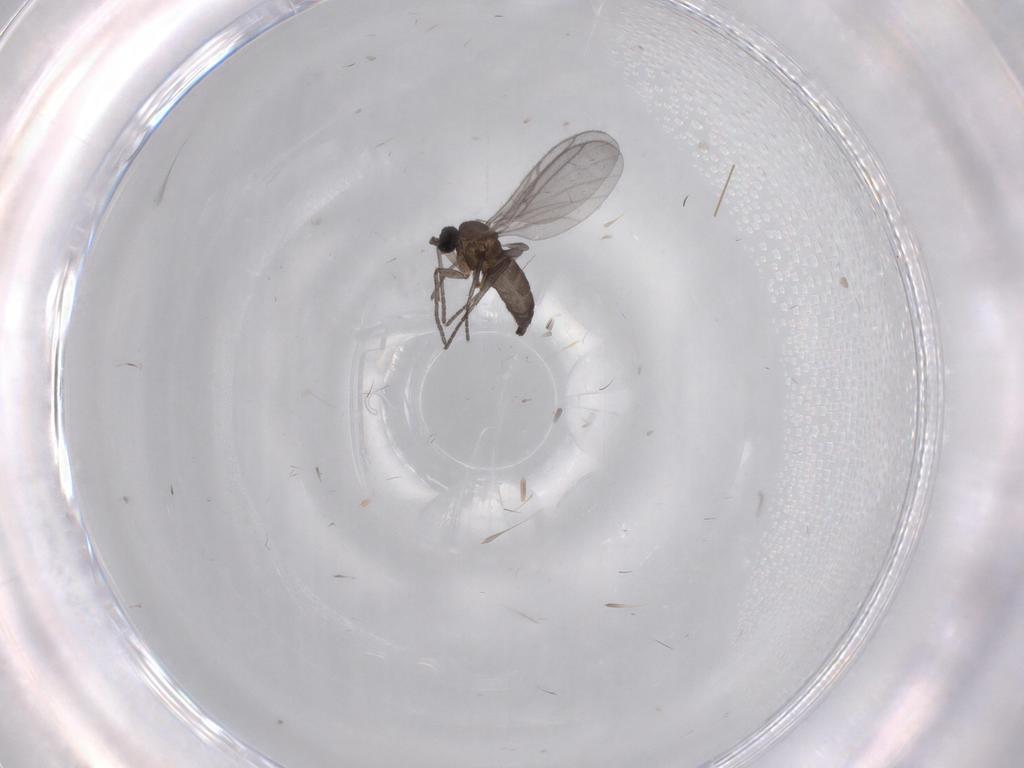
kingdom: Animalia
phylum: Arthropoda
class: Insecta
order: Diptera
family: Sciaridae
